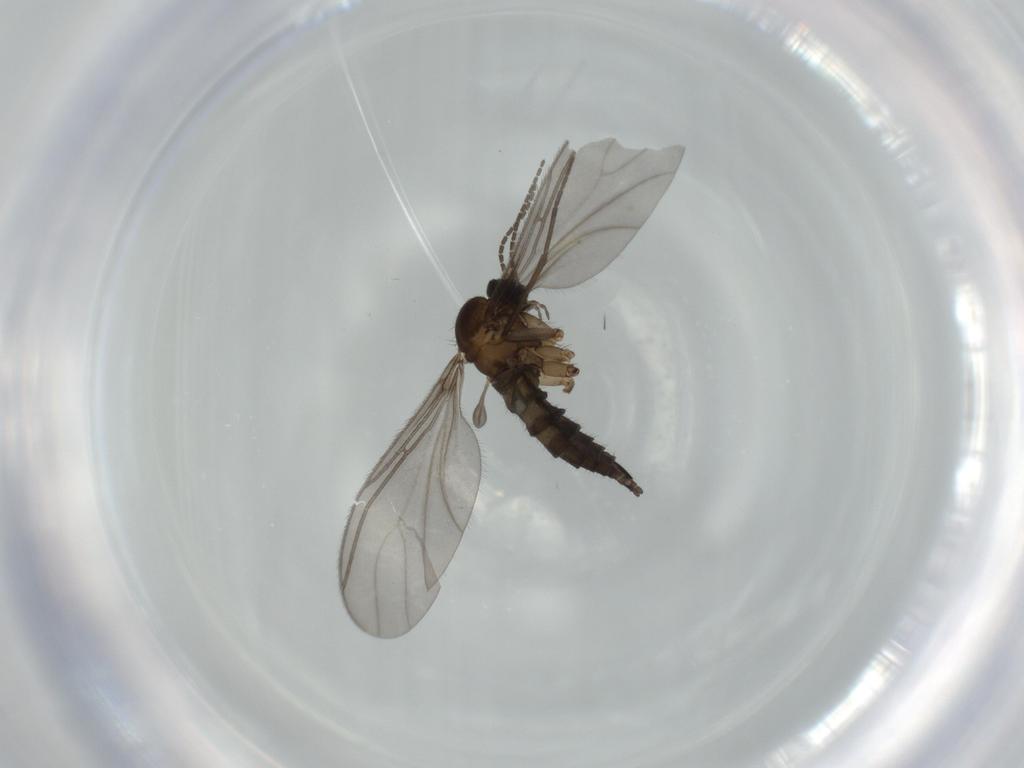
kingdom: Animalia
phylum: Arthropoda
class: Insecta
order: Diptera
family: Sciaridae
